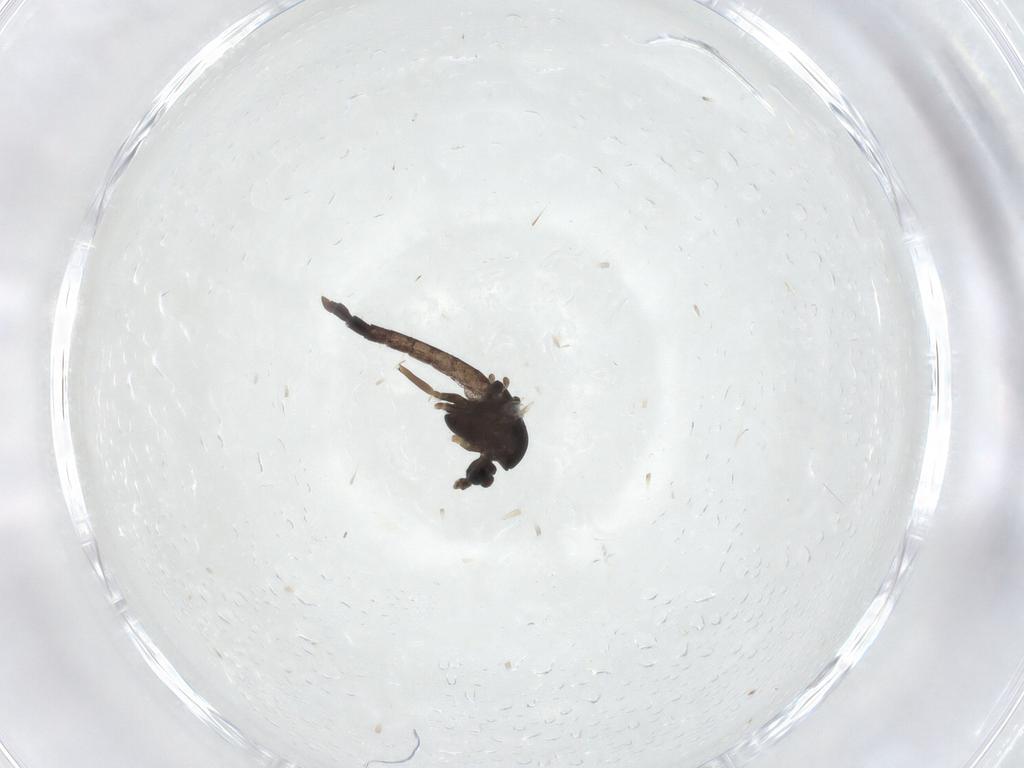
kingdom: Animalia
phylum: Arthropoda
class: Insecta
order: Diptera
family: Chironomidae
